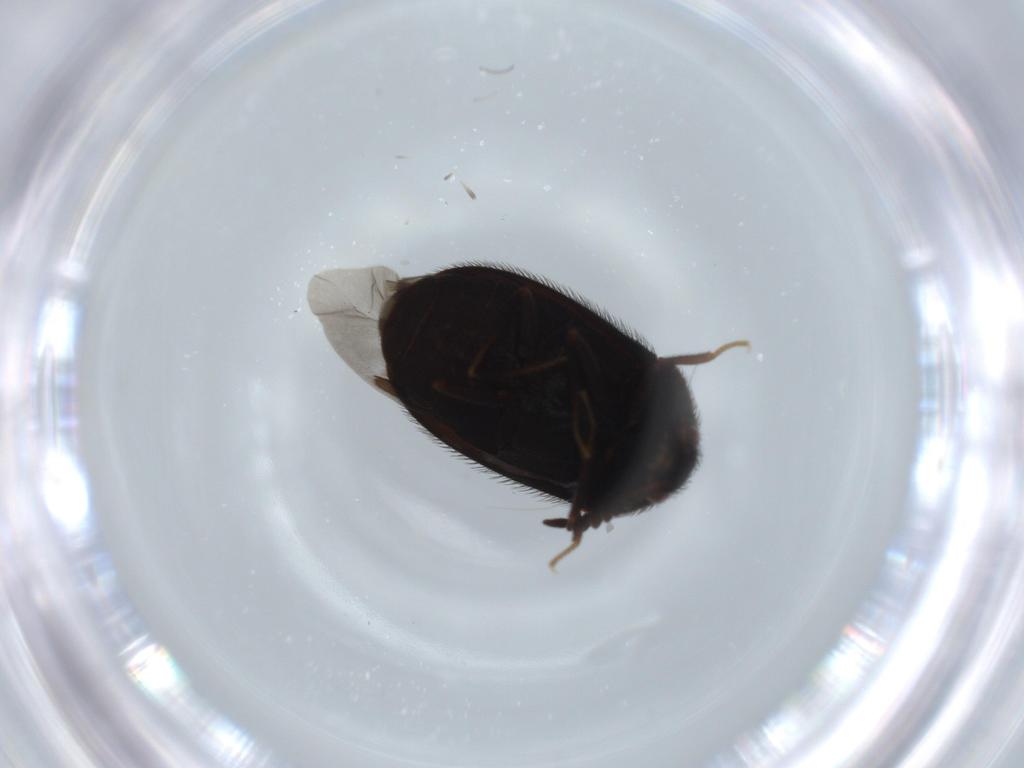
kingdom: Animalia
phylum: Arthropoda
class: Insecta
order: Coleoptera
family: Dermestidae
